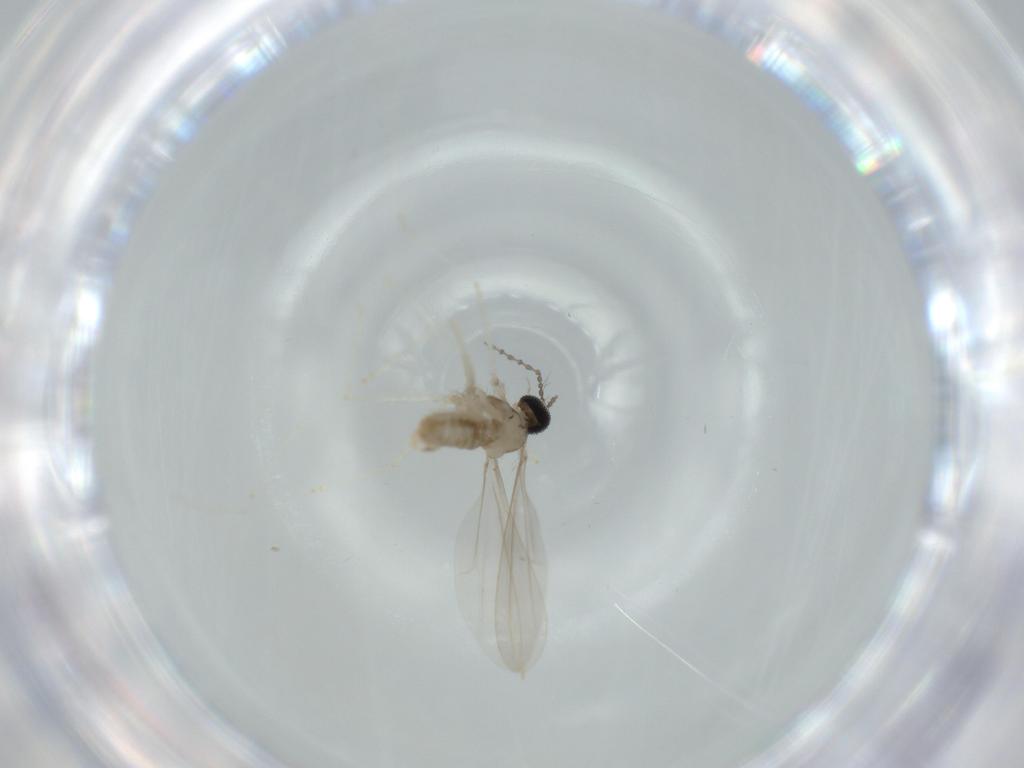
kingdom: Animalia
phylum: Arthropoda
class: Insecta
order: Diptera
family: Cecidomyiidae
